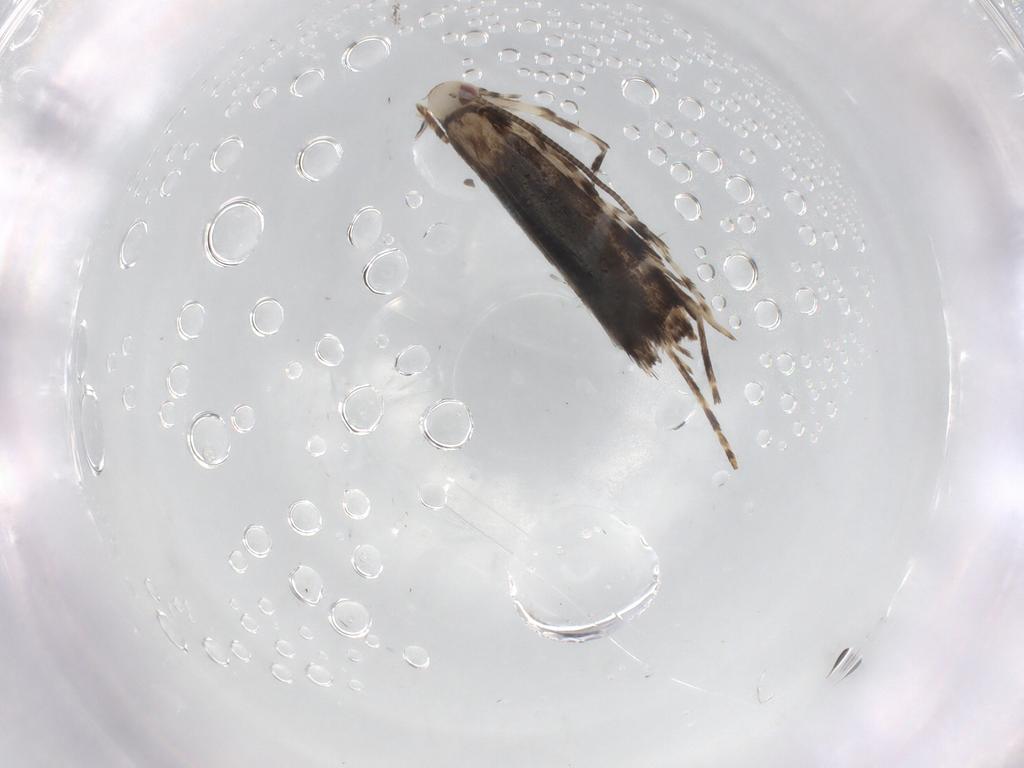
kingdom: Animalia
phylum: Arthropoda
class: Insecta
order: Lepidoptera
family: Gracillariidae
